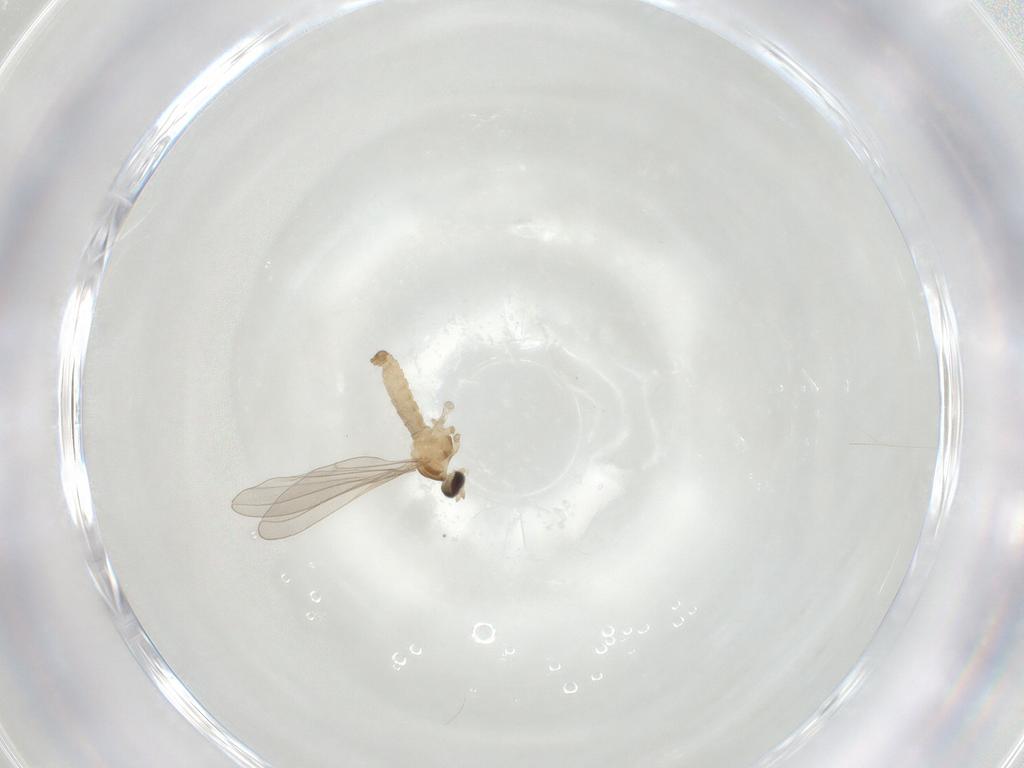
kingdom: Animalia
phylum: Arthropoda
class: Insecta
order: Diptera
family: Cecidomyiidae
